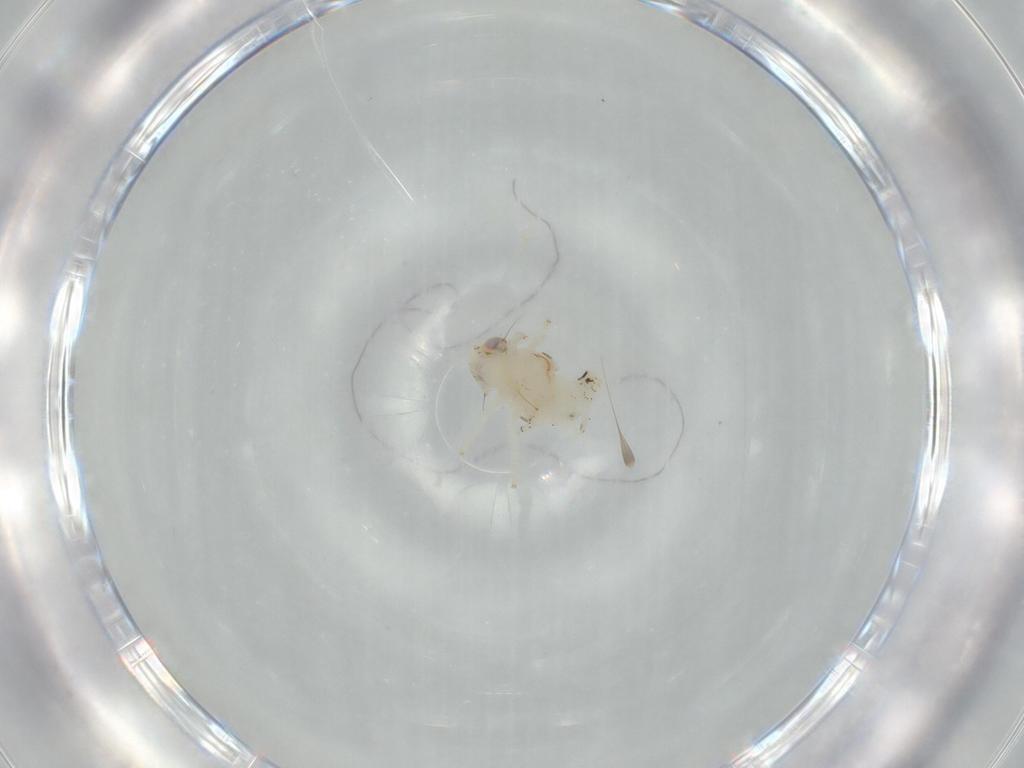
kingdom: Animalia
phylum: Arthropoda
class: Insecta
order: Hemiptera
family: Nogodinidae
